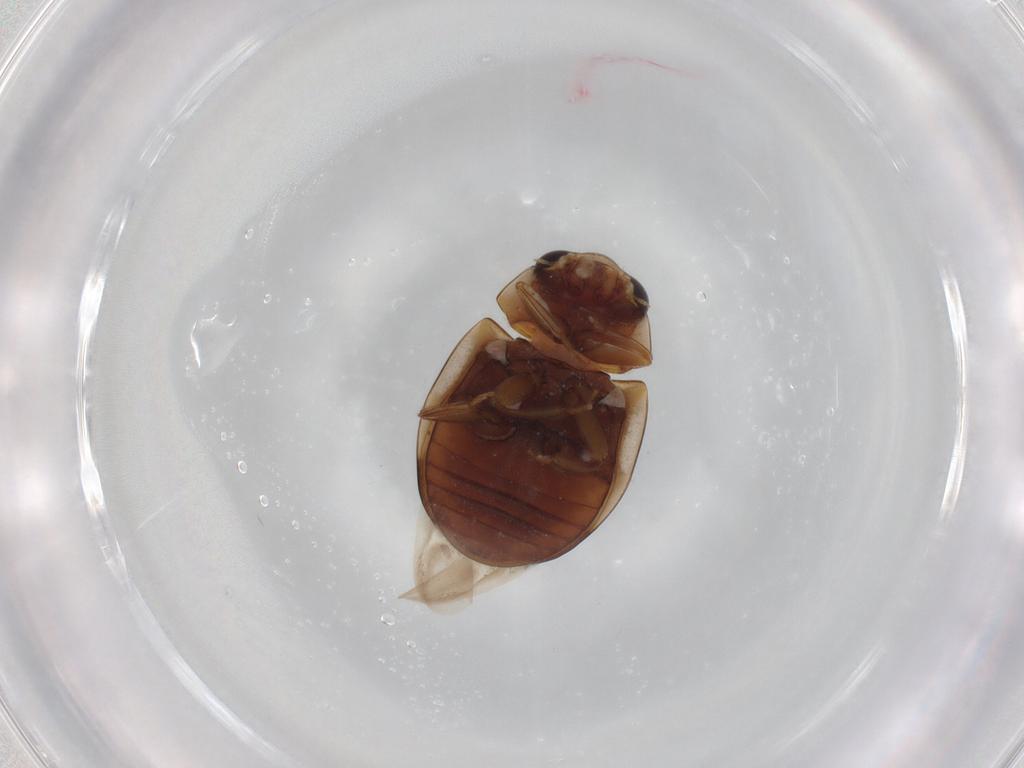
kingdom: Animalia
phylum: Arthropoda
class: Insecta
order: Coleoptera
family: Coccinellidae
